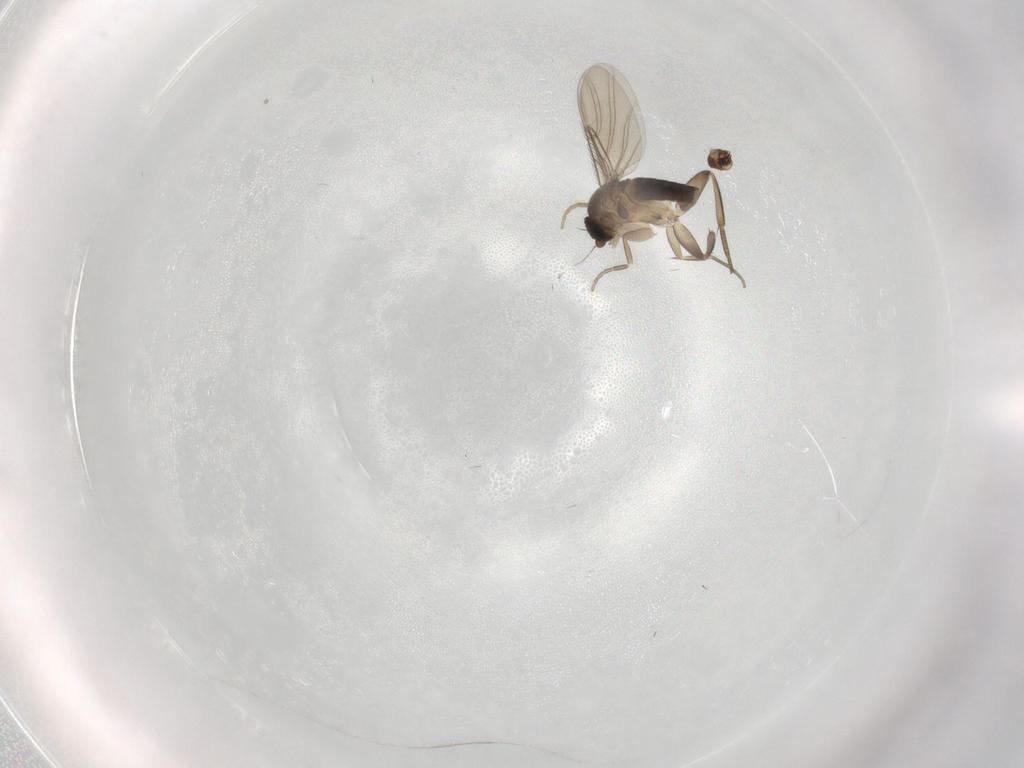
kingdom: Animalia
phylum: Arthropoda
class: Insecta
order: Diptera
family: Phoridae
